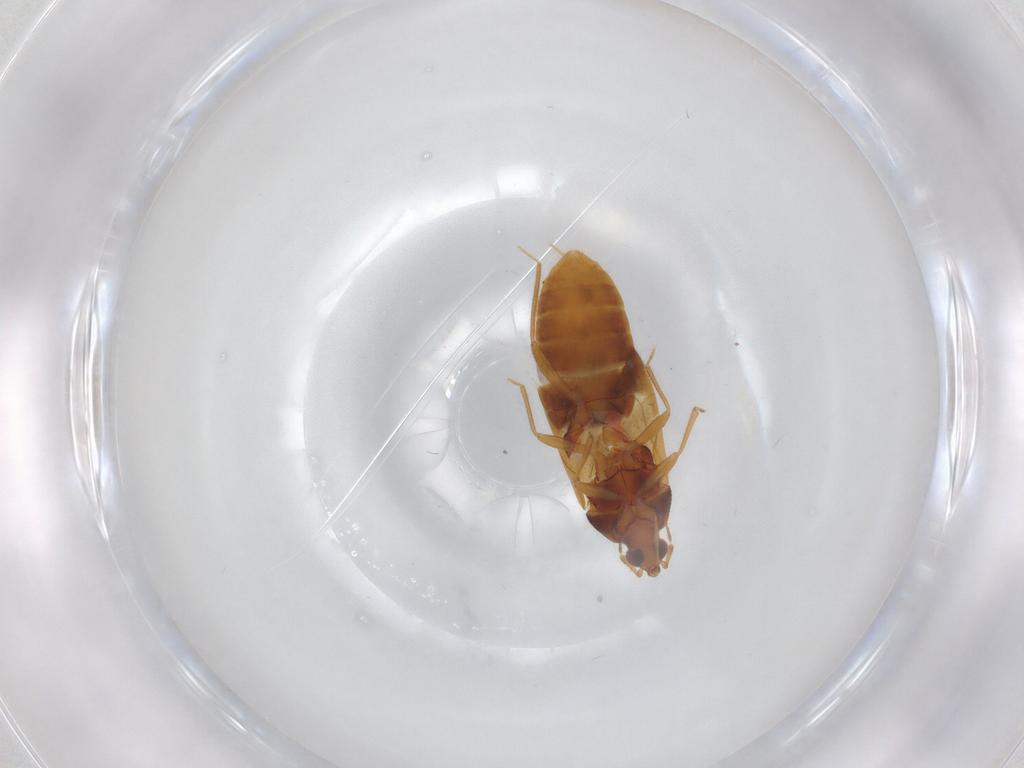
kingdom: Animalia
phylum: Arthropoda
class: Insecta
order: Hemiptera
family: Anthocoridae
